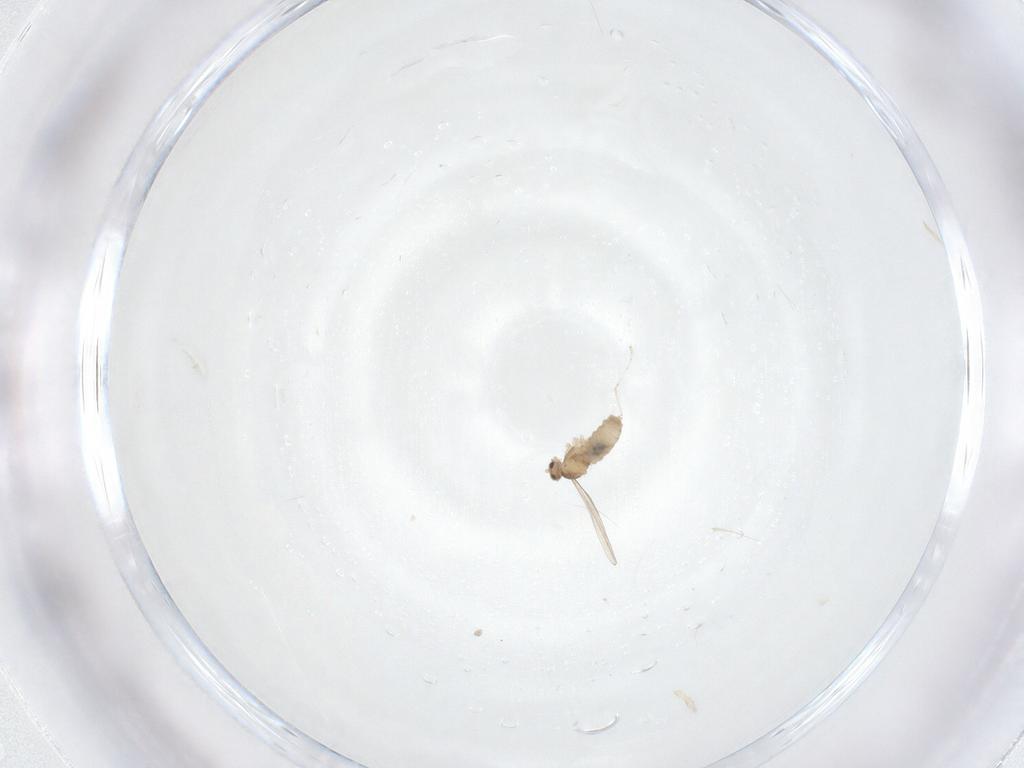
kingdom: Animalia
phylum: Arthropoda
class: Insecta
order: Diptera
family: Cecidomyiidae
